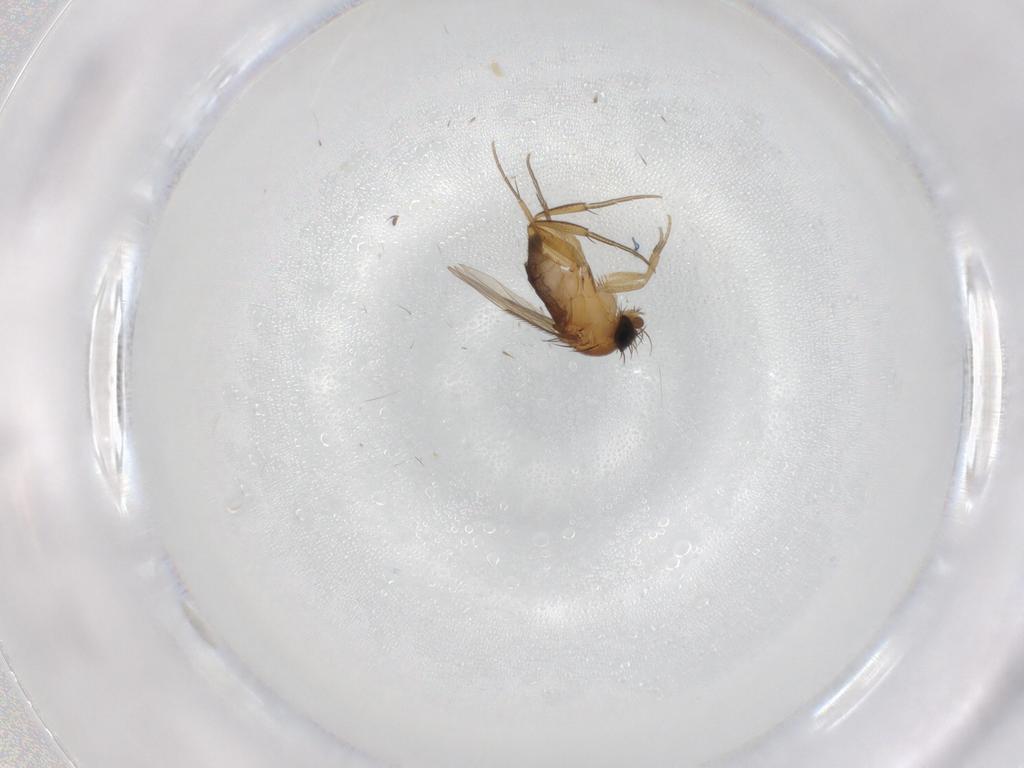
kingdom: Animalia
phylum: Arthropoda
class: Insecta
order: Diptera
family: Phoridae
